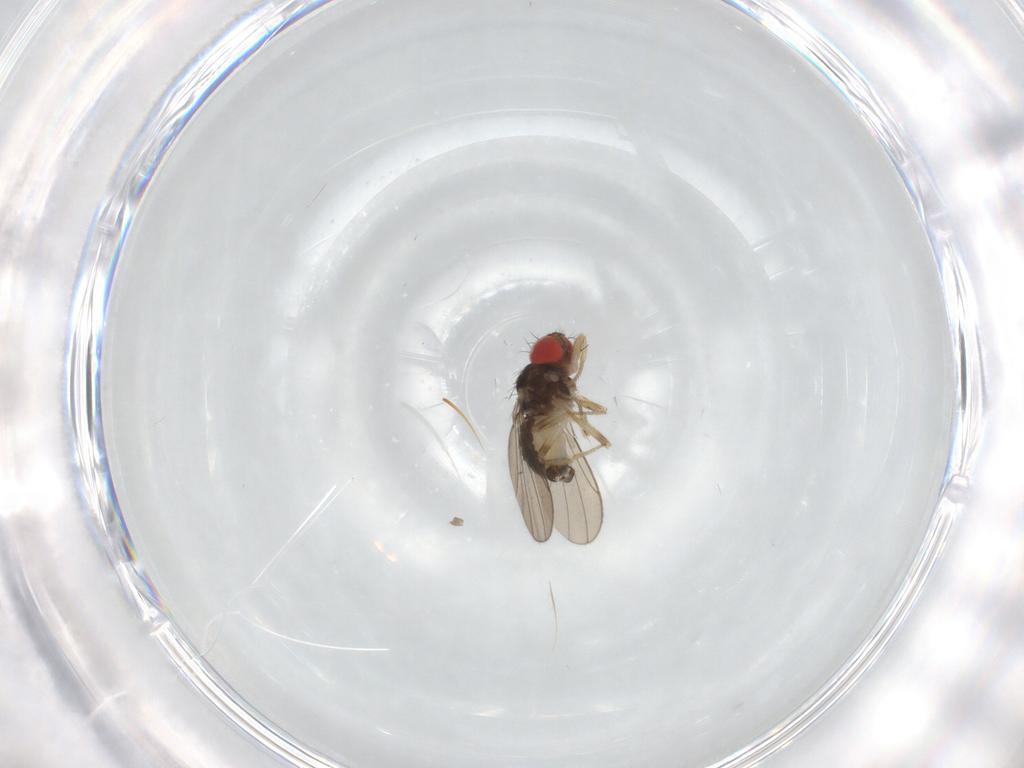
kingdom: Animalia
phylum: Arthropoda
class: Insecta
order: Diptera
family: Drosophilidae
